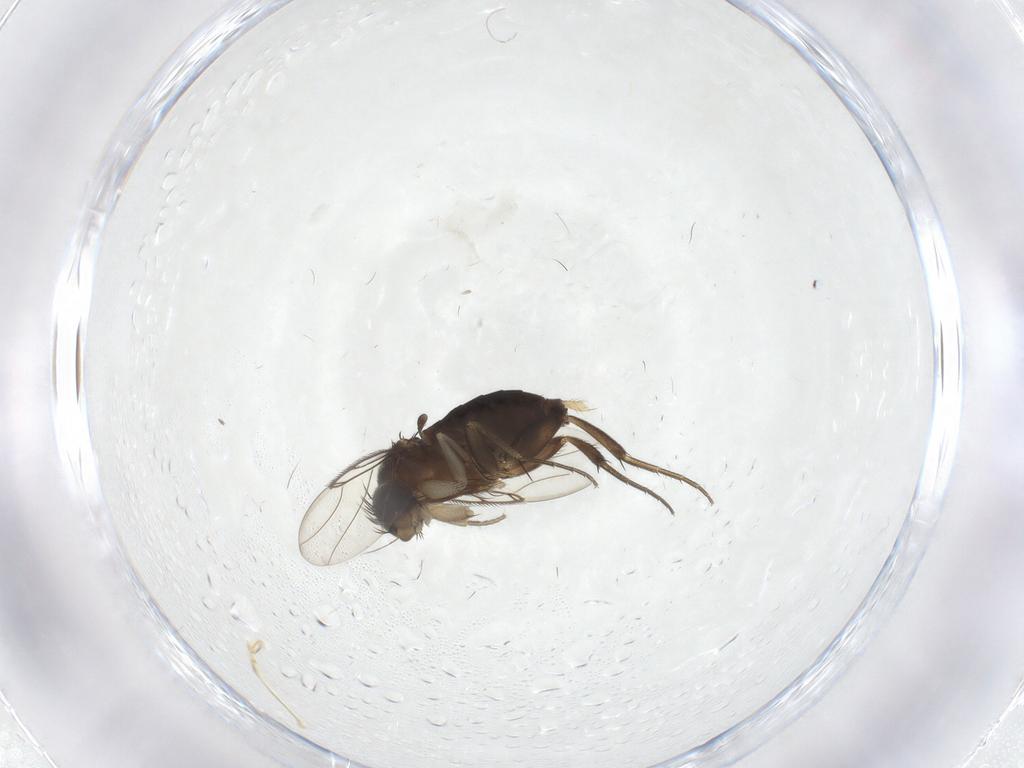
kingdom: Animalia
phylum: Arthropoda
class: Insecta
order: Diptera
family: Phoridae
